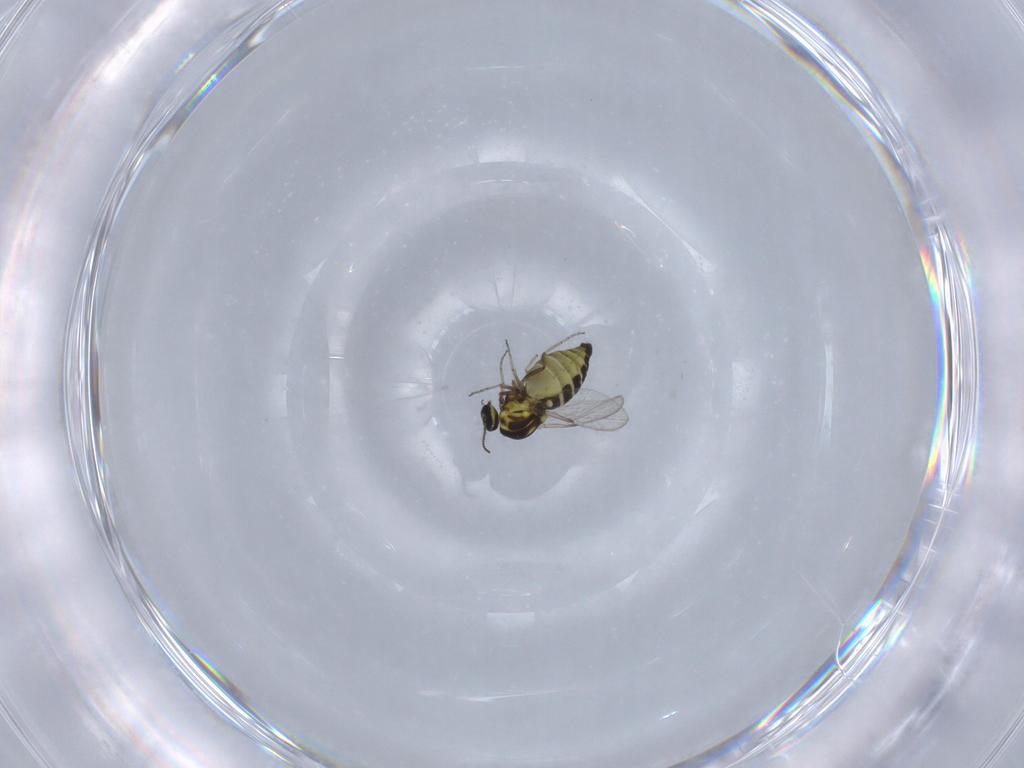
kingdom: Animalia
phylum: Arthropoda
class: Insecta
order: Diptera
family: Ceratopogonidae
